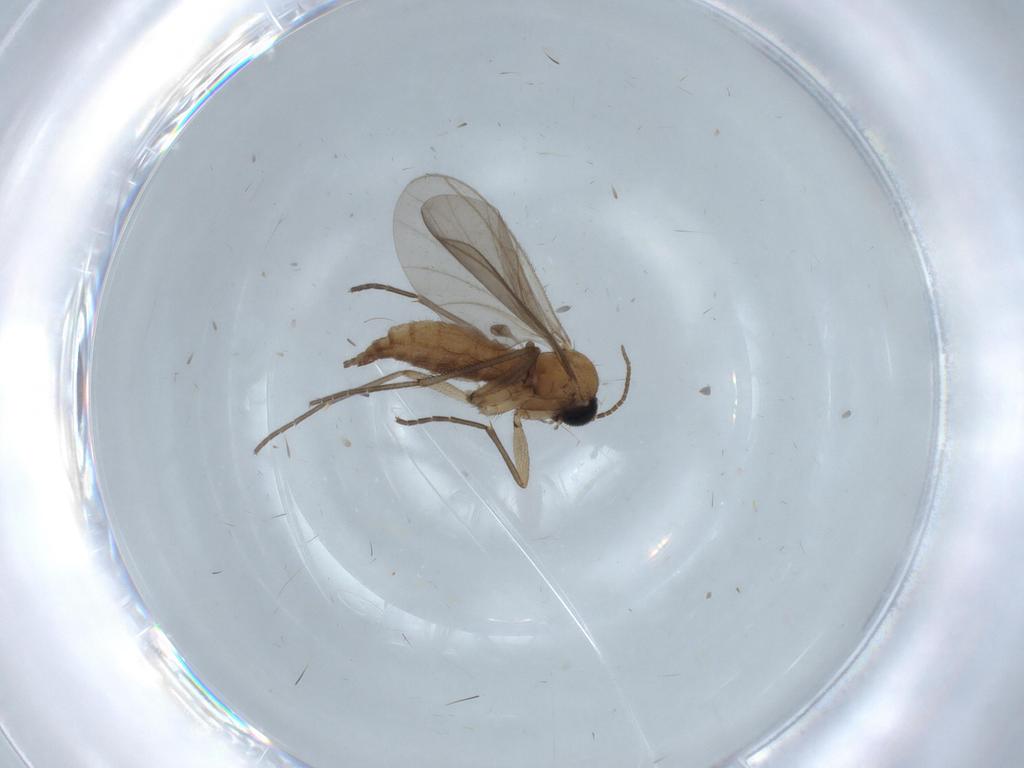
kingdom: Animalia
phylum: Arthropoda
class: Insecta
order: Diptera
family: Sciaridae
